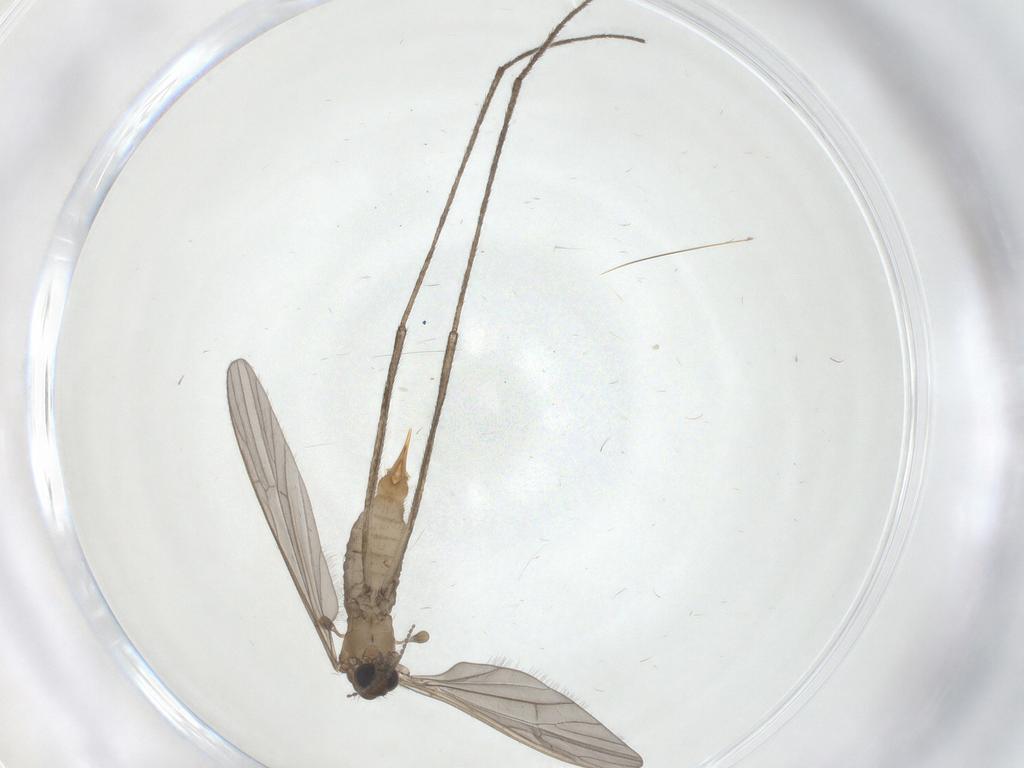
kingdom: Animalia
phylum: Arthropoda
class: Insecta
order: Diptera
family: Limoniidae
